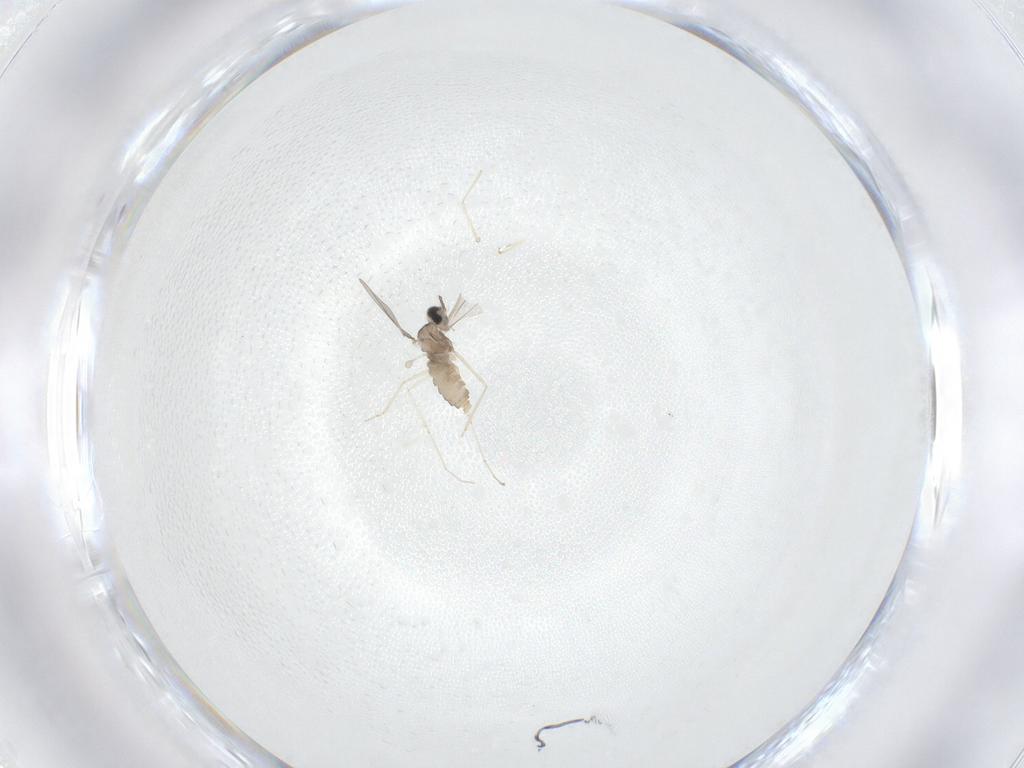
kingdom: Animalia
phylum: Arthropoda
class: Insecta
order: Diptera
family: Phoridae
